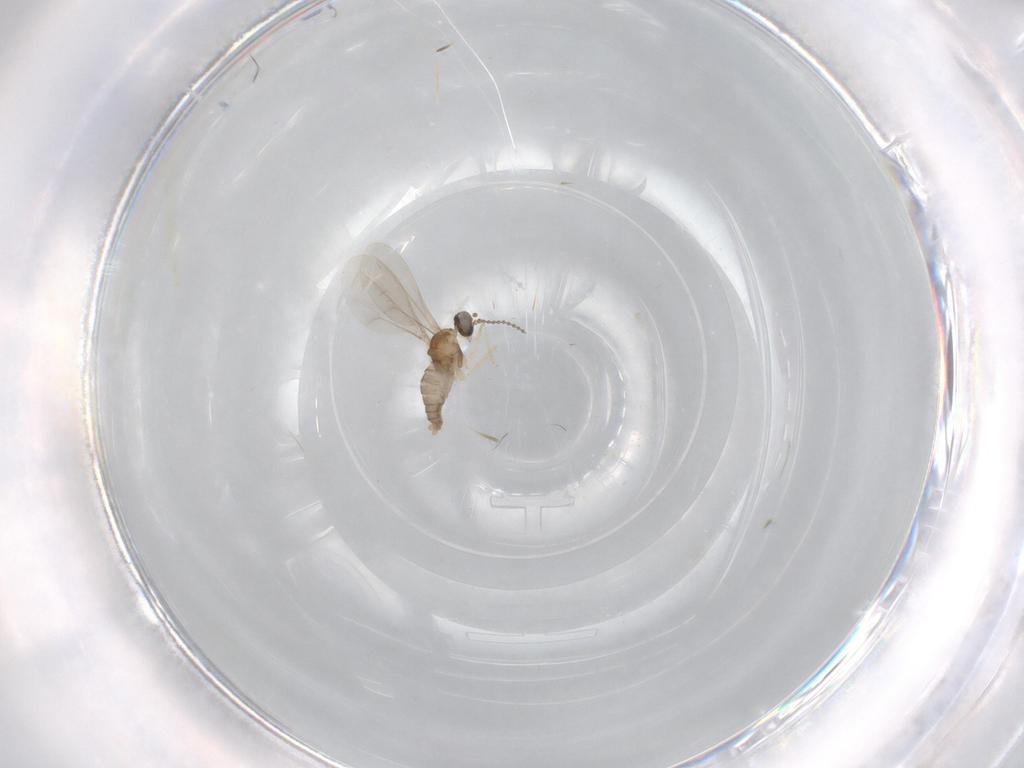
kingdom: Animalia
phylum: Arthropoda
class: Insecta
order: Diptera
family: Cecidomyiidae
